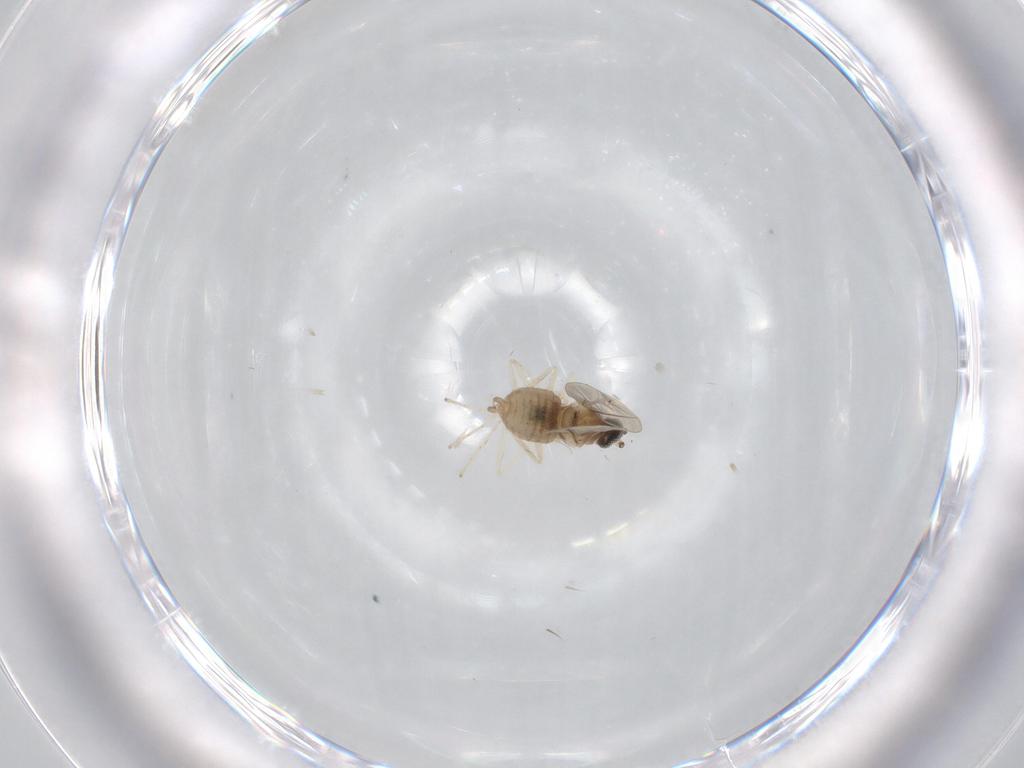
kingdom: Animalia
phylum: Arthropoda
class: Insecta
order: Diptera
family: Cecidomyiidae
